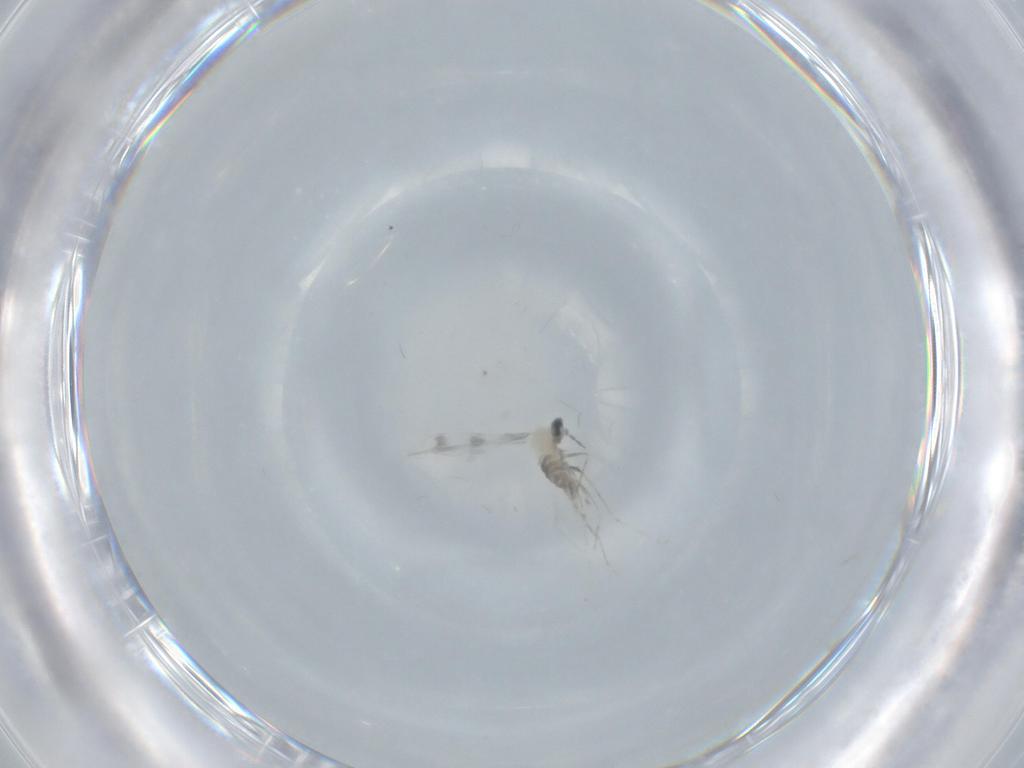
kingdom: Animalia
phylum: Arthropoda
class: Insecta
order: Diptera
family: Cecidomyiidae
